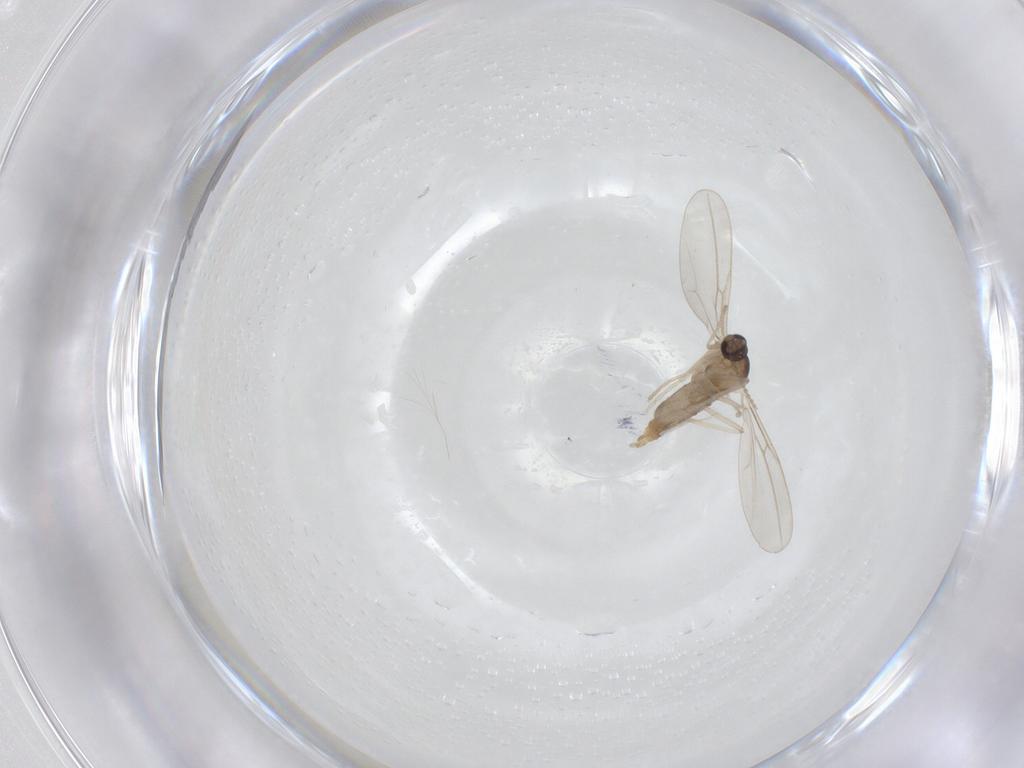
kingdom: Animalia
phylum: Arthropoda
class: Insecta
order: Diptera
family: Cecidomyiidae
